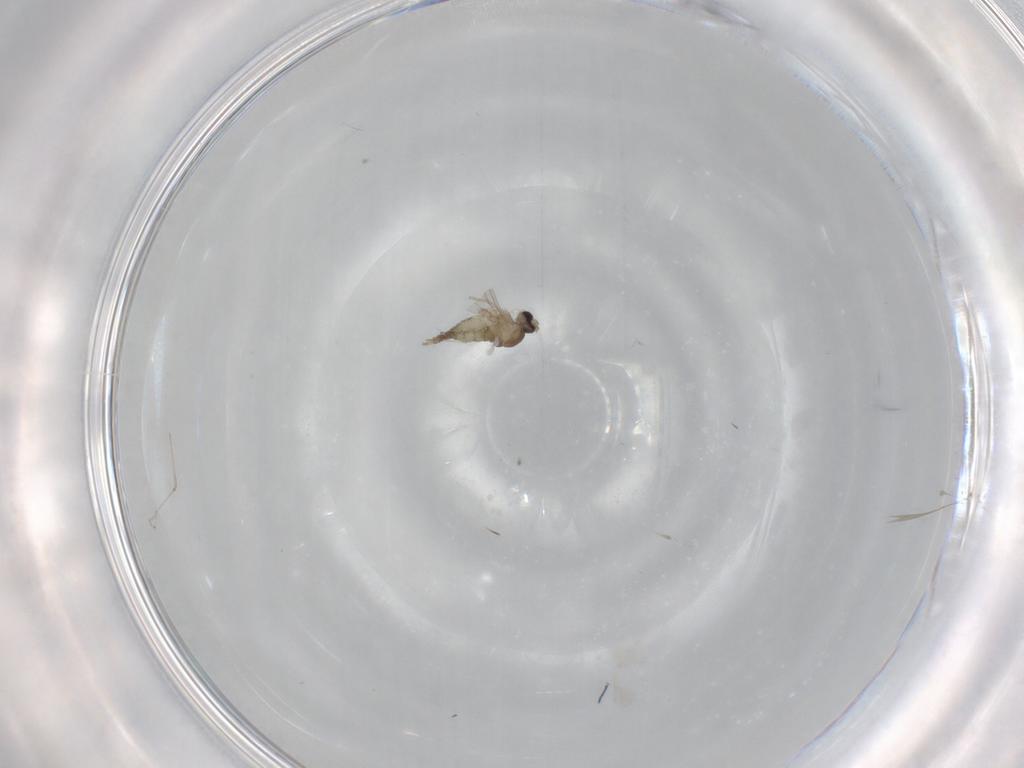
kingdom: Animalia
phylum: Arthropoda
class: Insecta
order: Diptera
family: Cecidomyiidae
